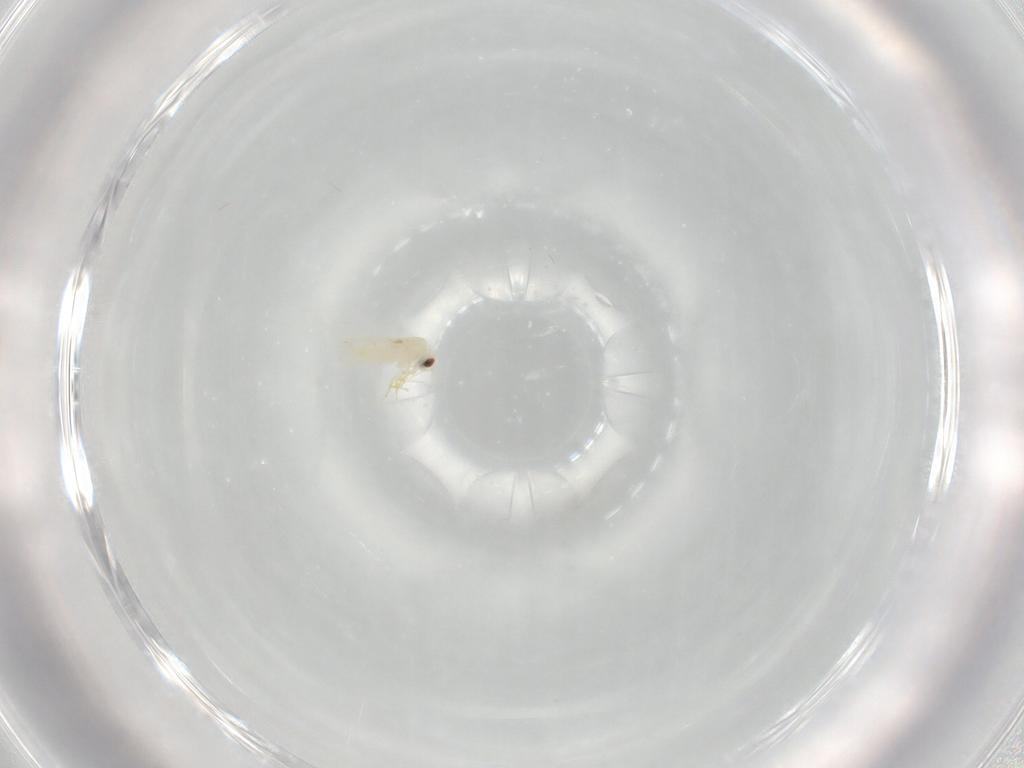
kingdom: Animalia
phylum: Arthropoda
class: Insecta
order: Hemiptera
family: Aleyrodidae
